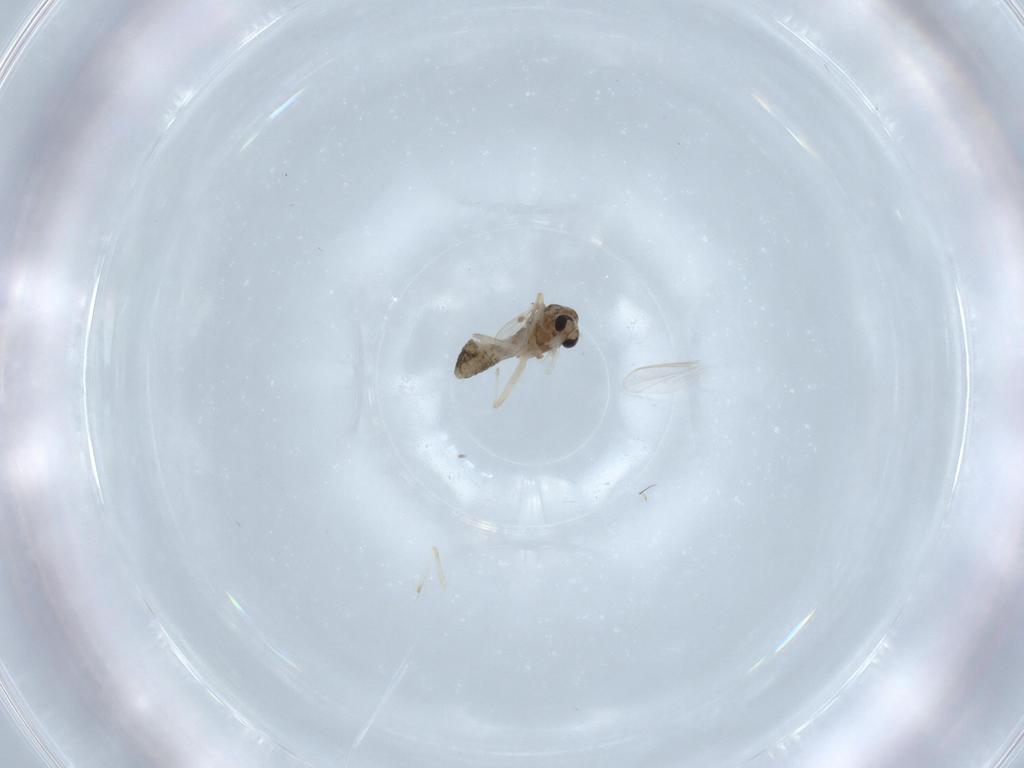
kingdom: Animalia
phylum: Arthropoda
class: Insecta
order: Diptera
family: Chironomidae
